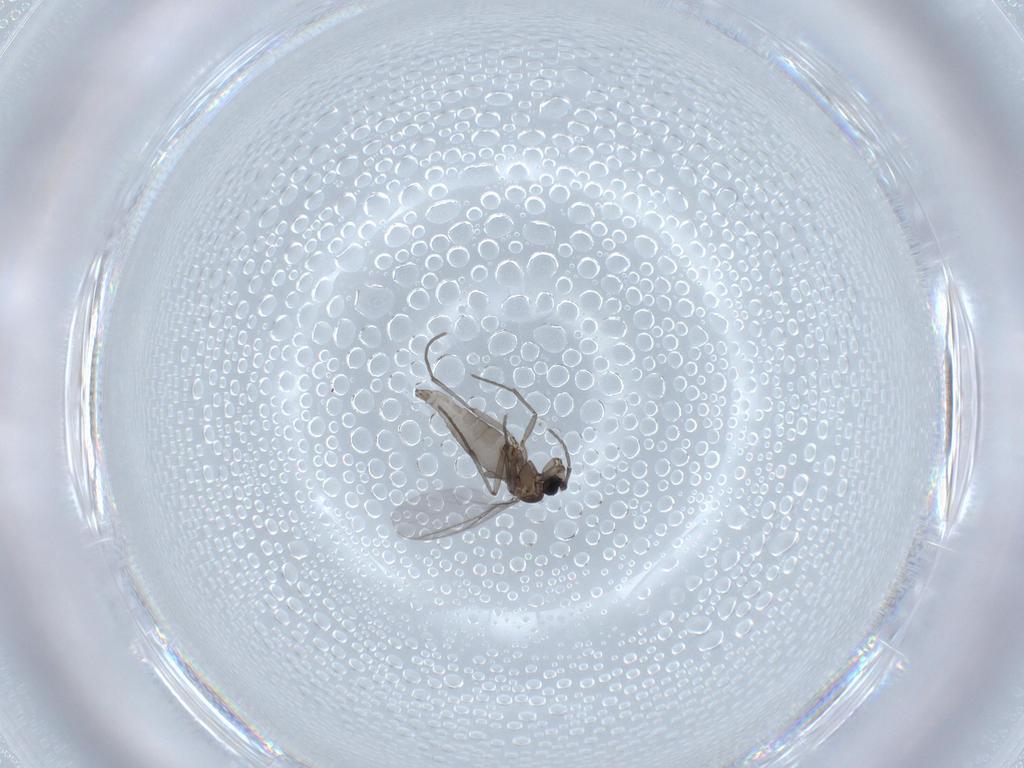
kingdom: Animalia
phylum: Arthropoda
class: Insecta
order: Diptera
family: Sciaridae
